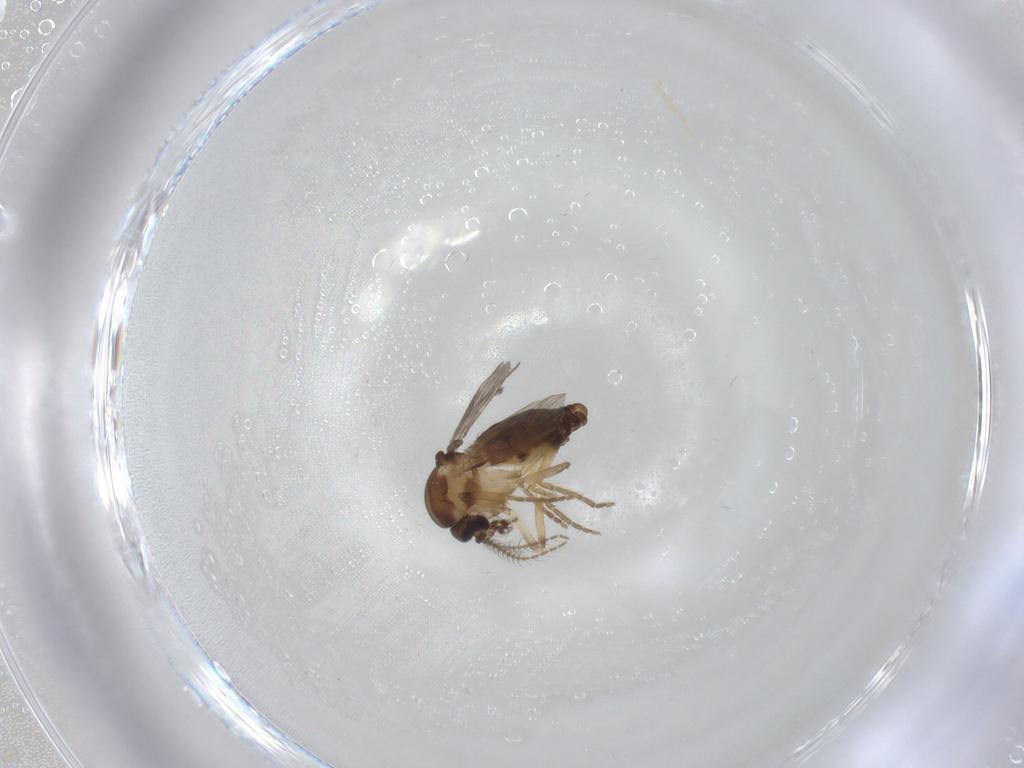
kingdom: Animalia
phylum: Arthropoda
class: Insecta
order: Diptera
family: Ceratopogonidae
